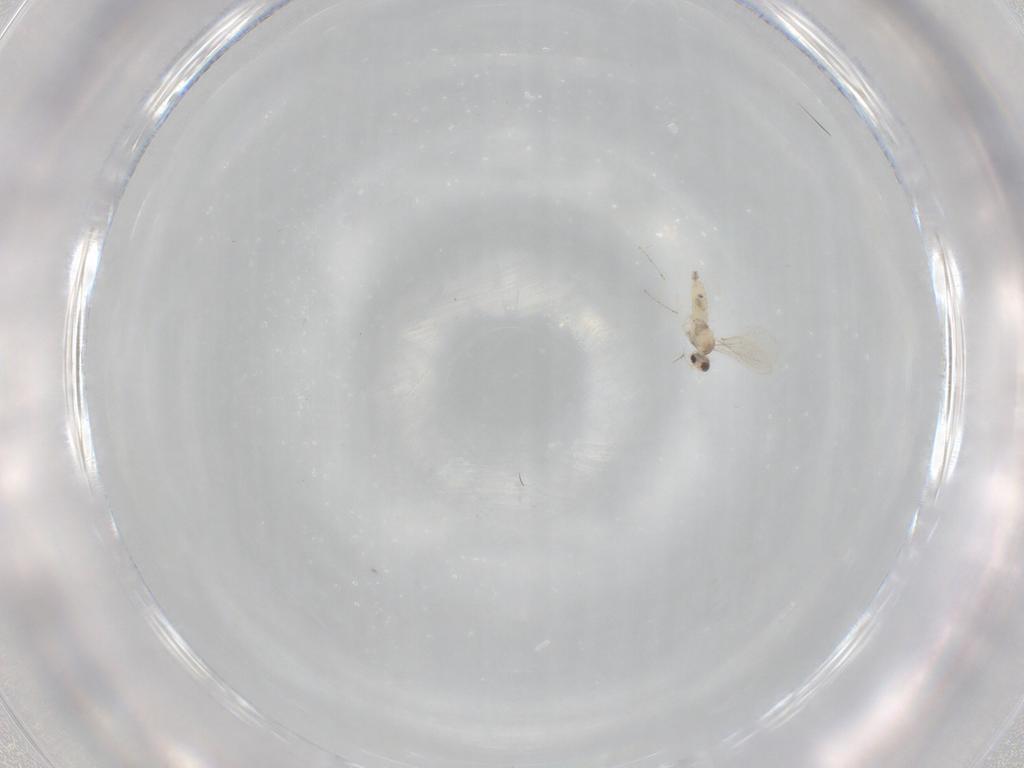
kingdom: Animalia
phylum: Arthropoda
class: Insecta
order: Diptera
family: Cecidomyiidae
